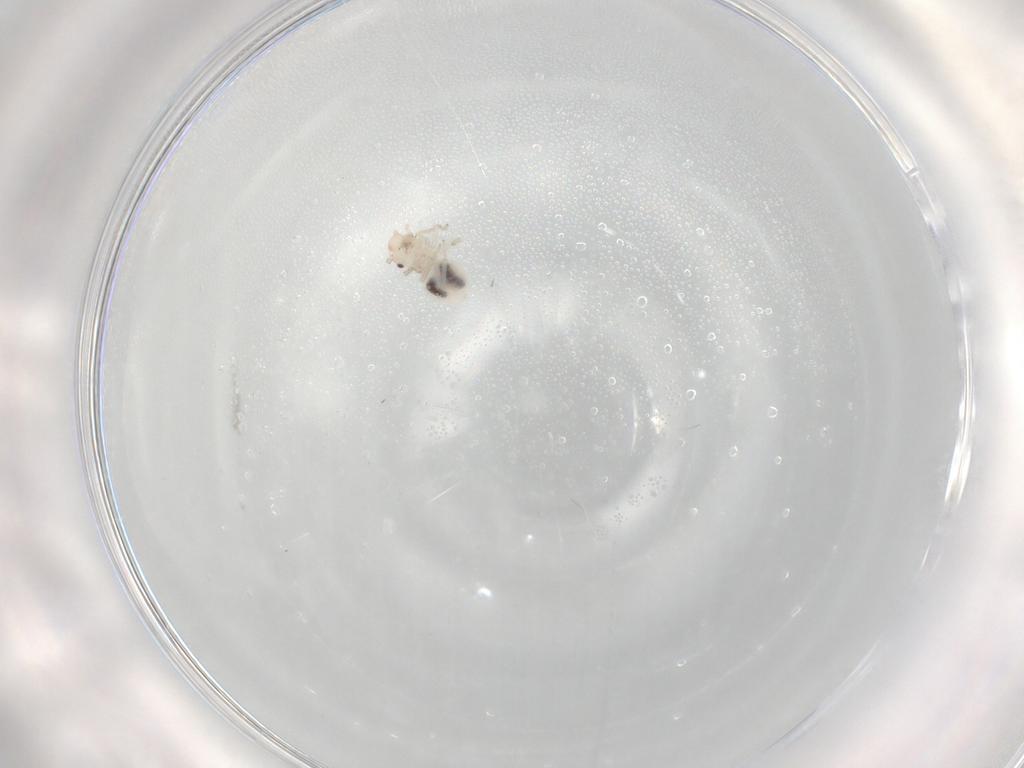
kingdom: Animalia
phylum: Arthropoda
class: Insecta
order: Psocodea
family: Amphipsocidae
